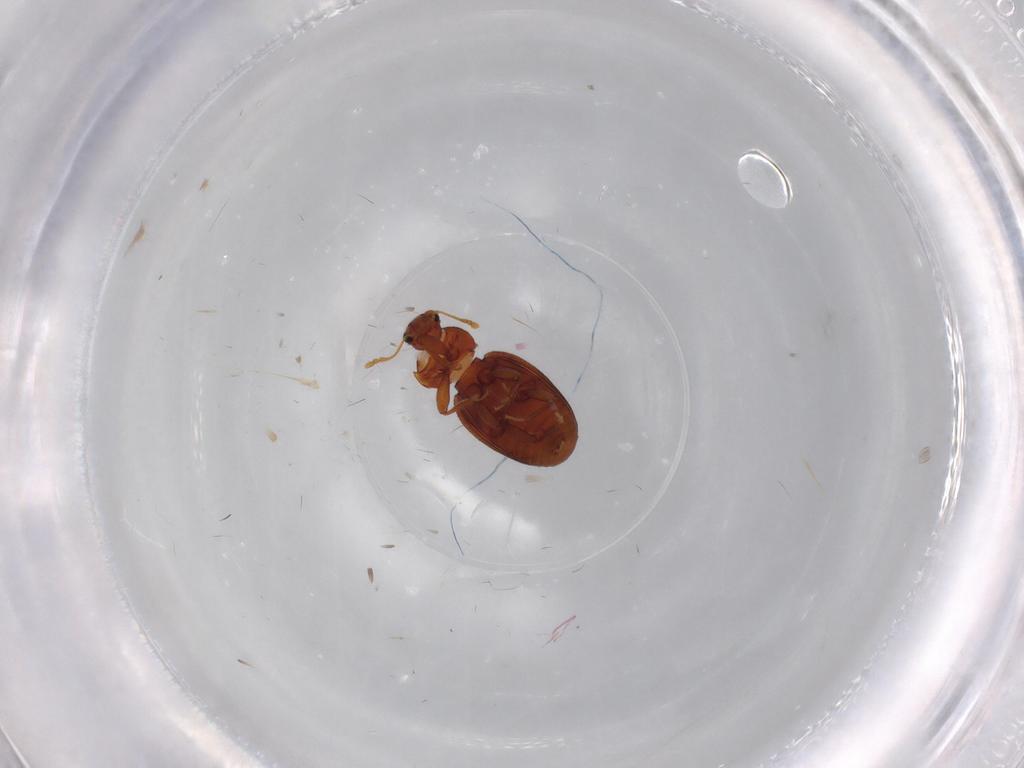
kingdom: Animalia
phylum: Arthropoda
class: Insecta
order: Coleoptera
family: Latridiidae
